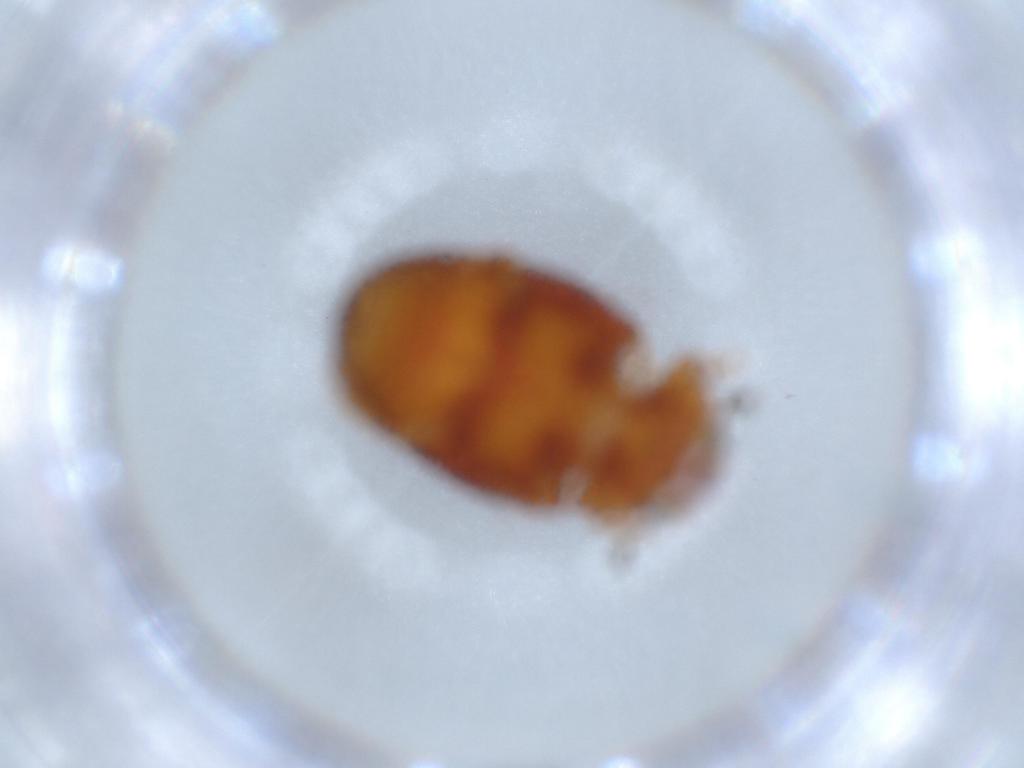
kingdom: Animalia
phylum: Arthropoda
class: Insecta
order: Coleoptera
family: Erotylidae
